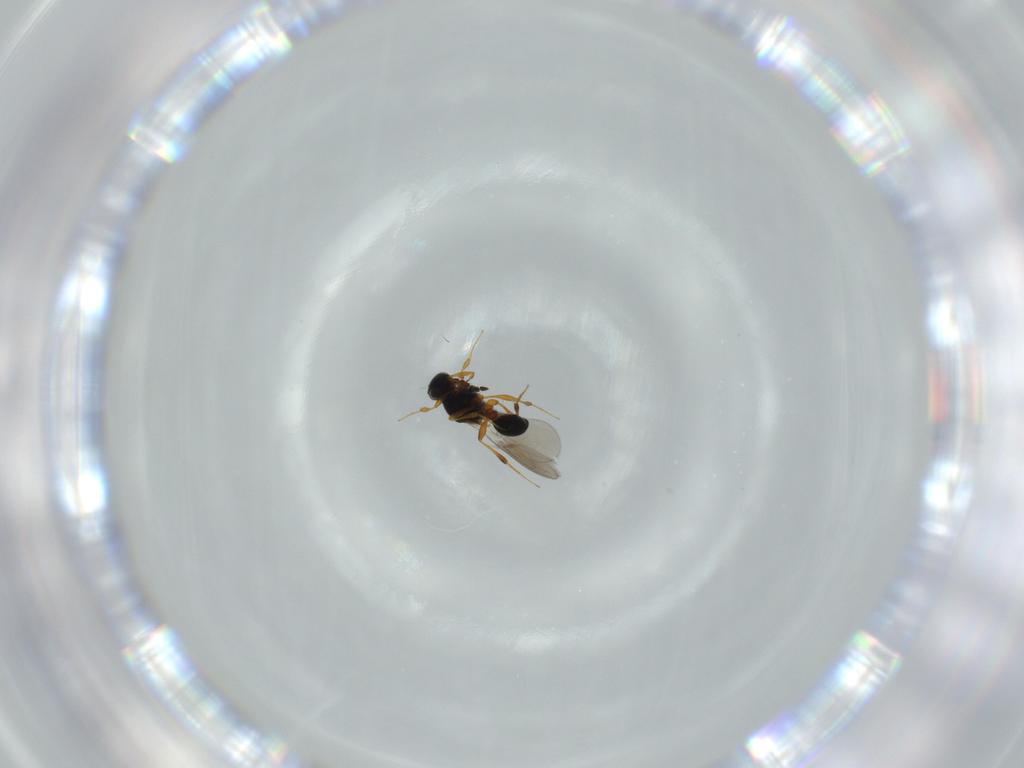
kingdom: Animalia
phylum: Arthropoda
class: Insecta
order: Hymenoptera
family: Platygastridae
